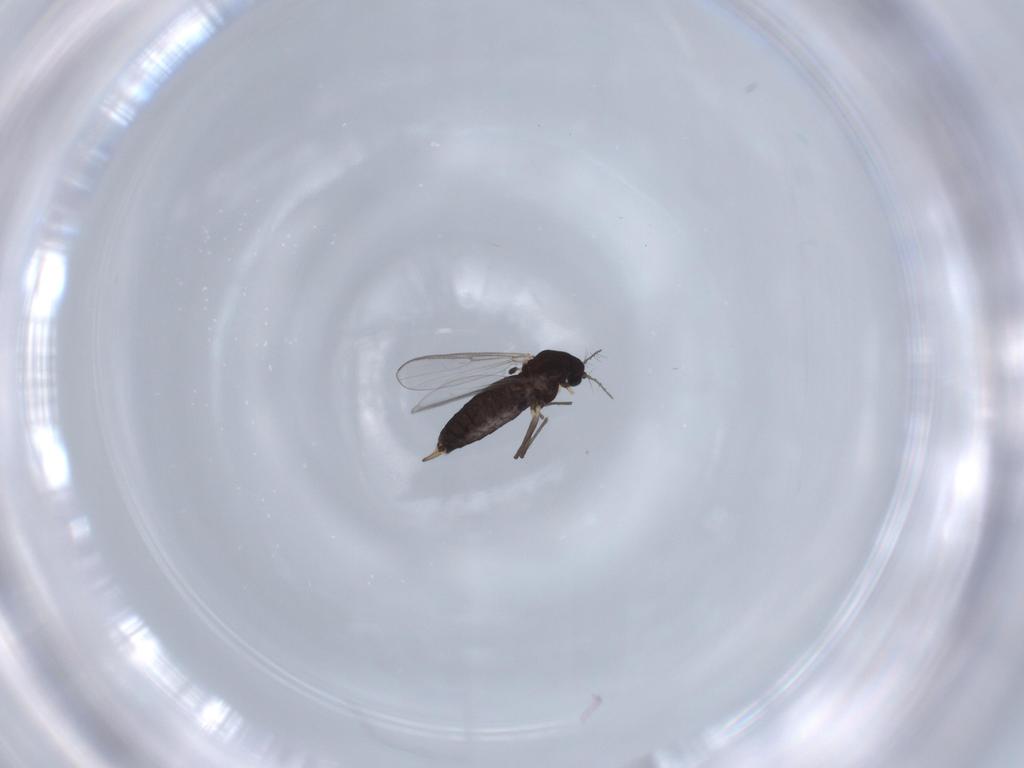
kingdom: Animalia
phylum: Arthropoda
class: Insecta
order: Diptera
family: Chironomidae
